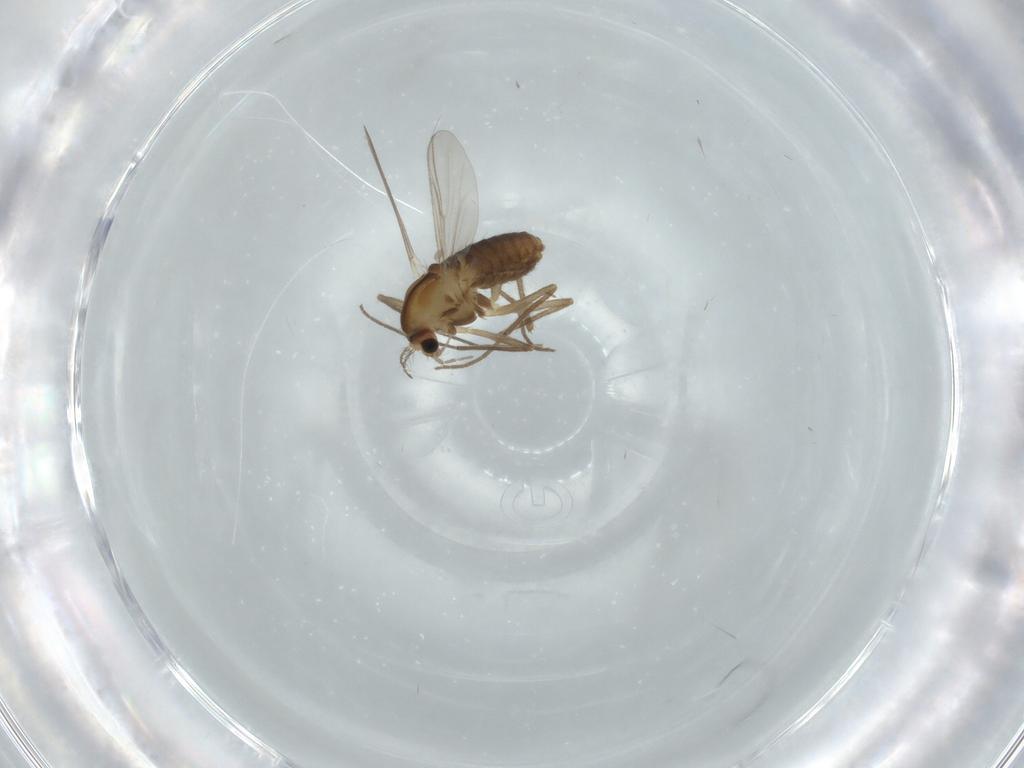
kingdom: Animalia
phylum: Arthropoda
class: Insecta
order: Diptera
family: Chironomidae
